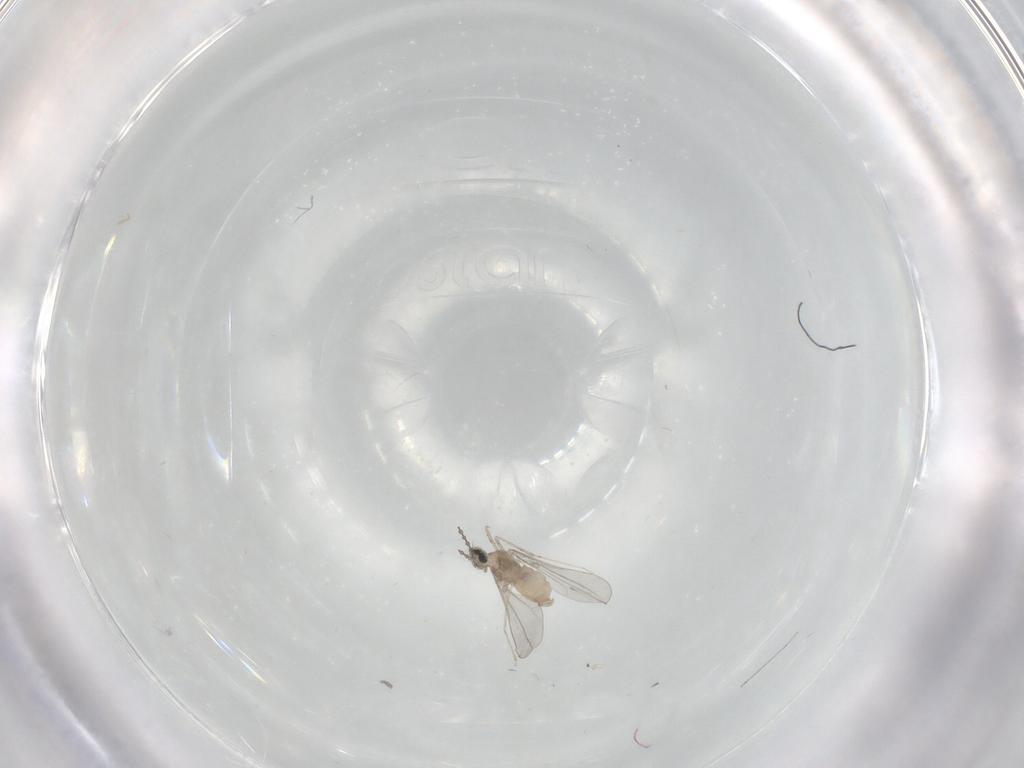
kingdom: Animalia
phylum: Arthropoda
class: Insecta
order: Diptera
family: Cecidomyiidae
